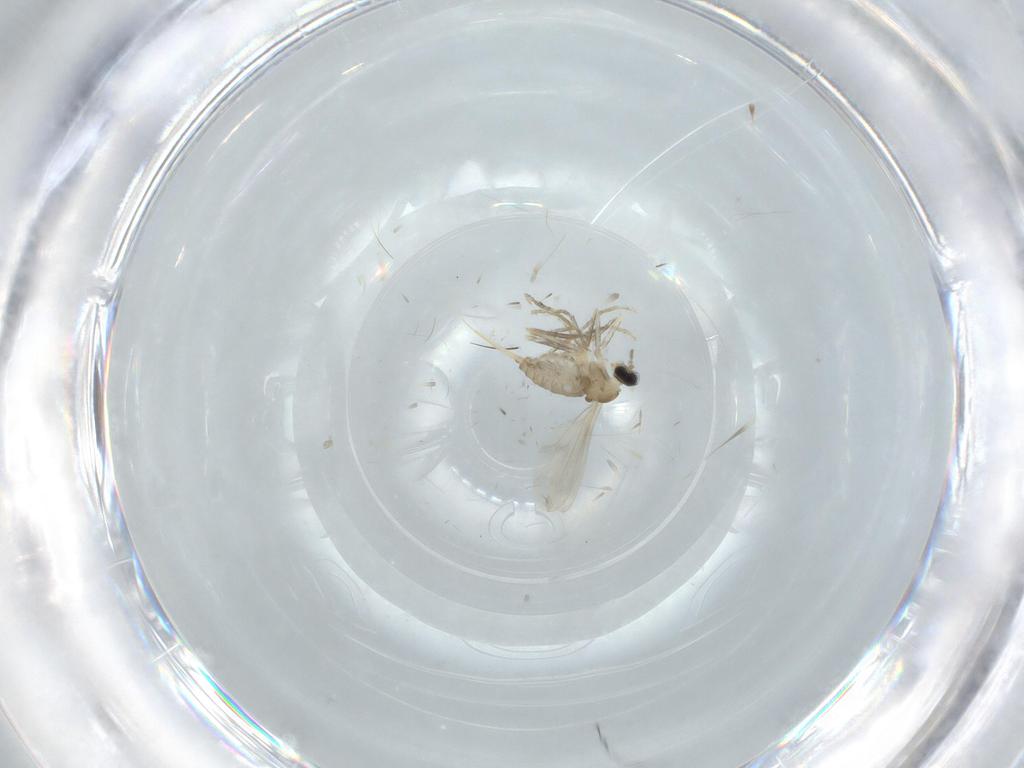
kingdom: Animalia
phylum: Arthropoda
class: Insecta
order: Diptera
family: Cecidomyiidae
